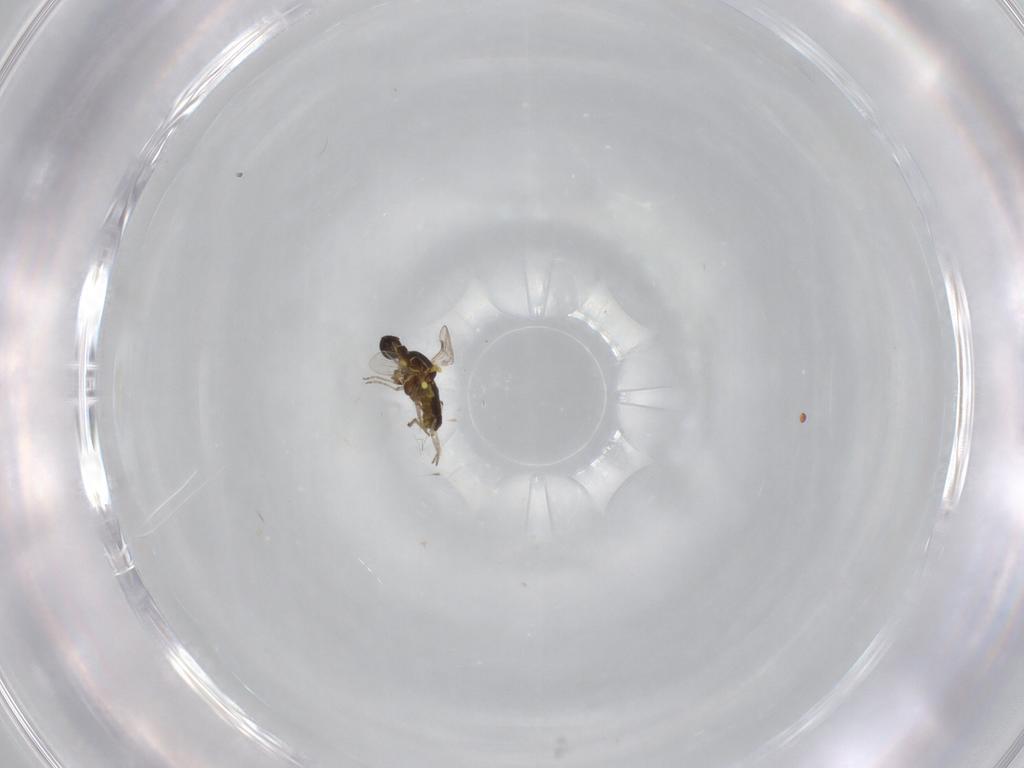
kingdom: Animalia
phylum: Arthropoda
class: Insecta
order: Diptera
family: Ceratopogonidae
